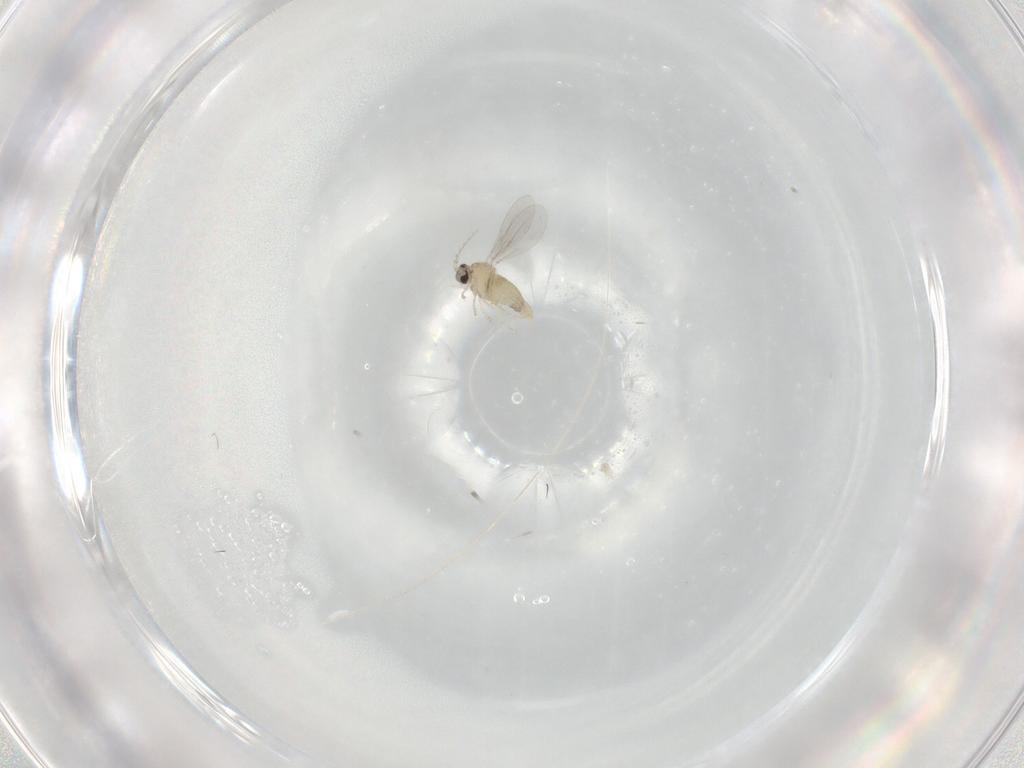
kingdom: Animalia
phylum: Arthropoda
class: Insecta
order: Diptera
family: Cecidomyiidae
